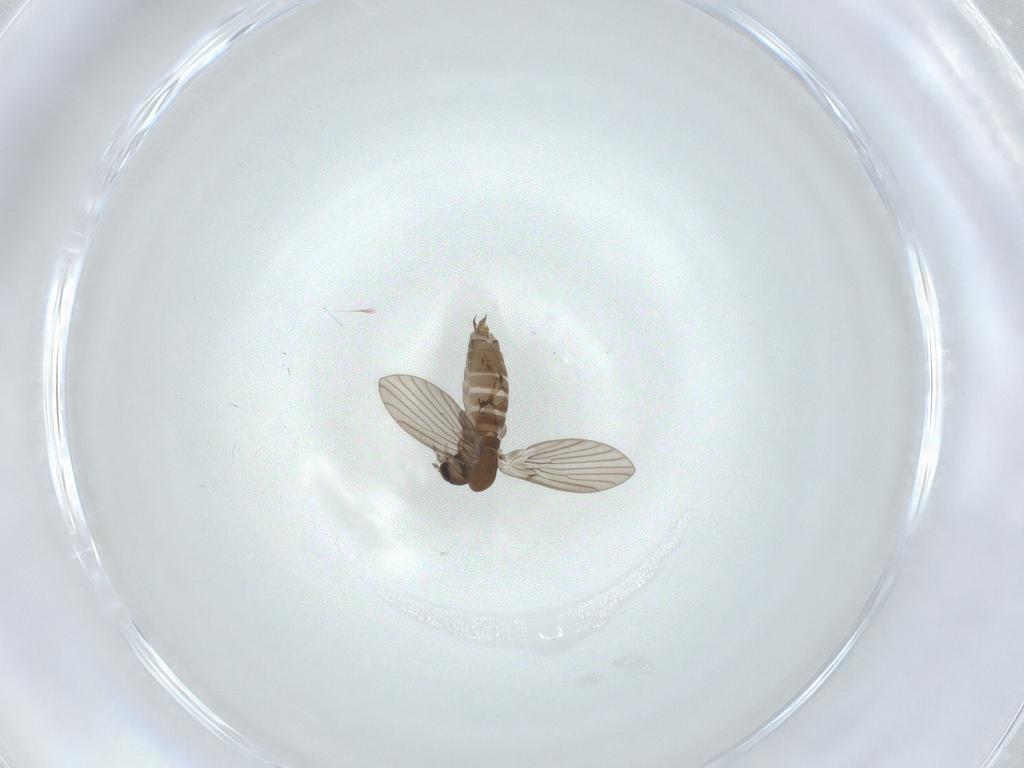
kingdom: Animalia
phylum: Arthropoda
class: Insecta
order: Diptera
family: Psychodidae
